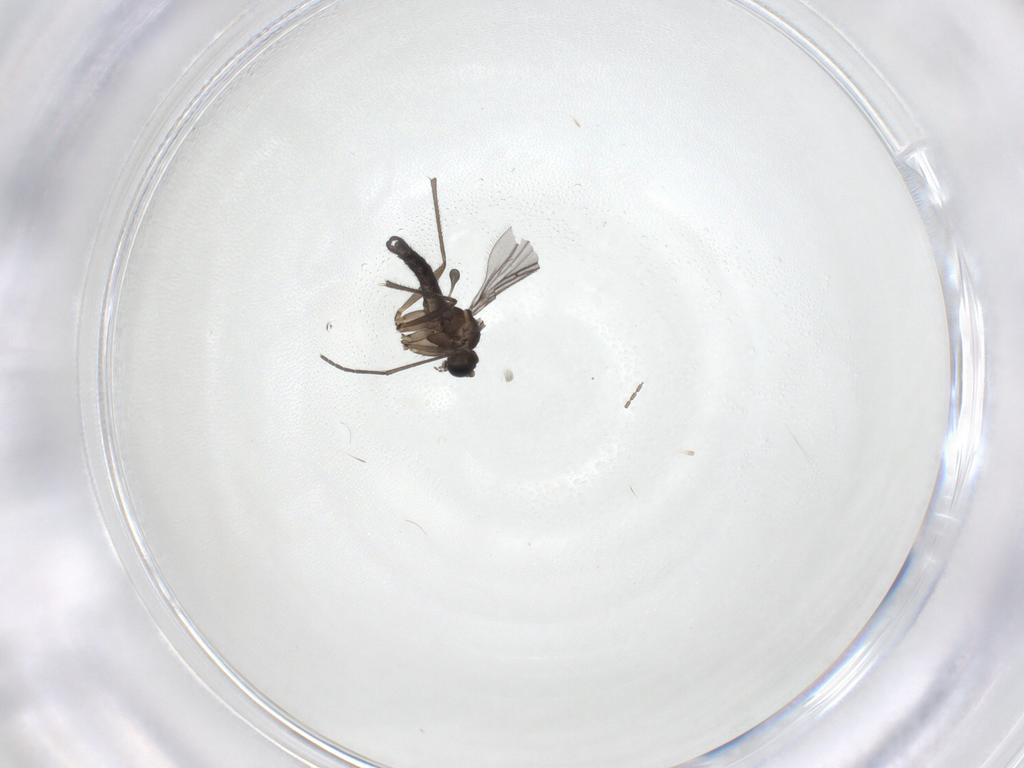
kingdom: Animalia
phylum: Arthropoda
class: Insecta
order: Diptera
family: Sciaridae
